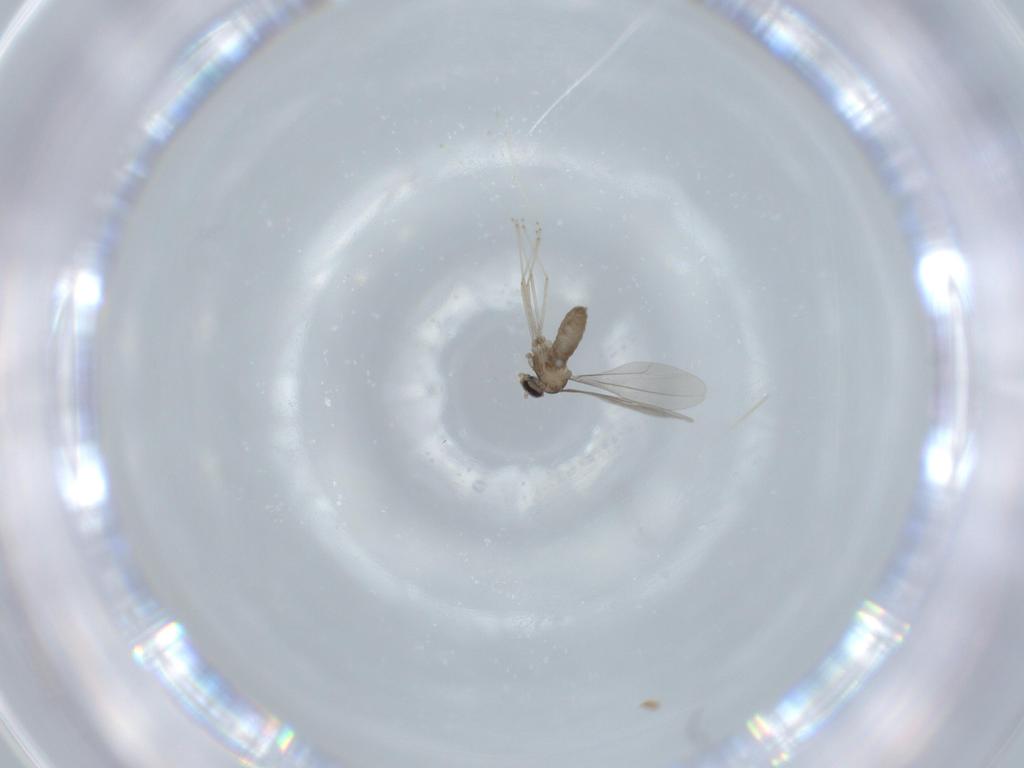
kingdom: Animalia
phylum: Arthropoda
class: Insecta
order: Diptera
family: Cecidomyiidae
